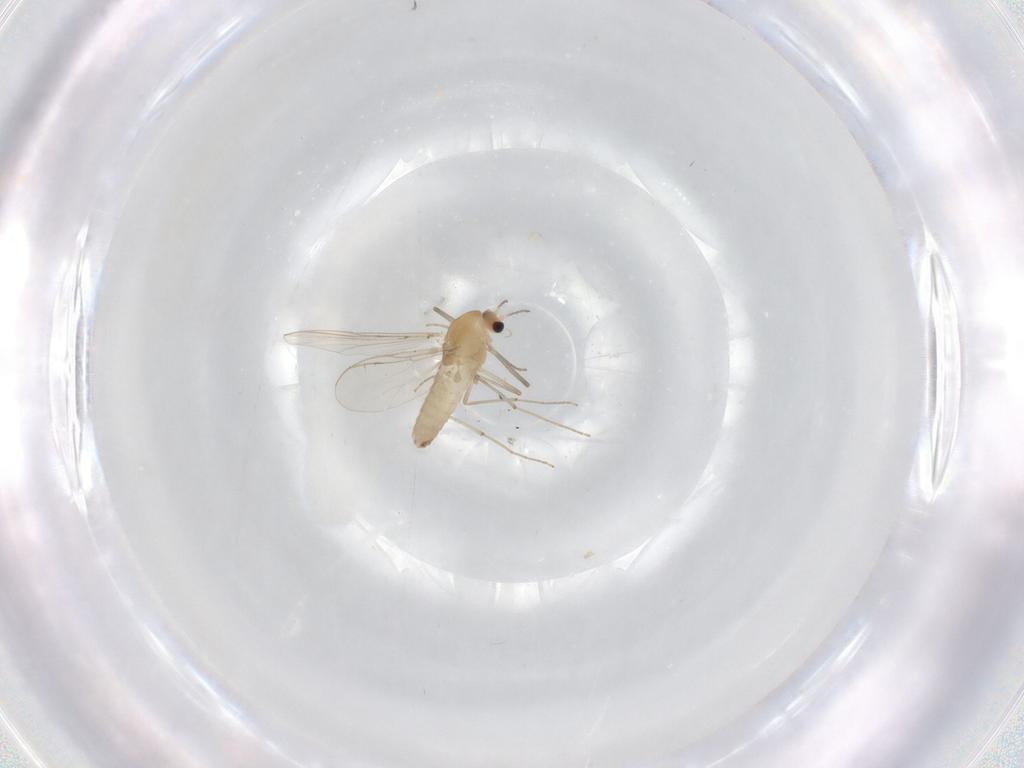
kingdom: Animalia
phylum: Arthropoda
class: Insecta
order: Diptera
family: Chironomidae
